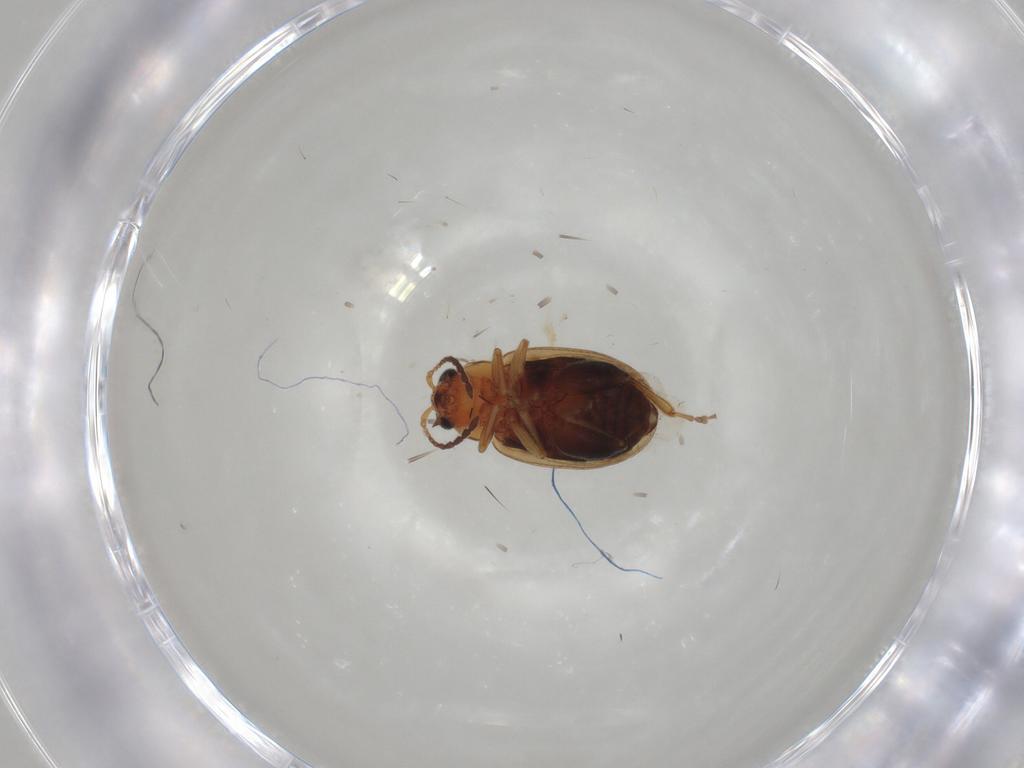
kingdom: Animalia
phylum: Arthropoda
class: Insecta
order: Coleoptera
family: Chrysomelidae
